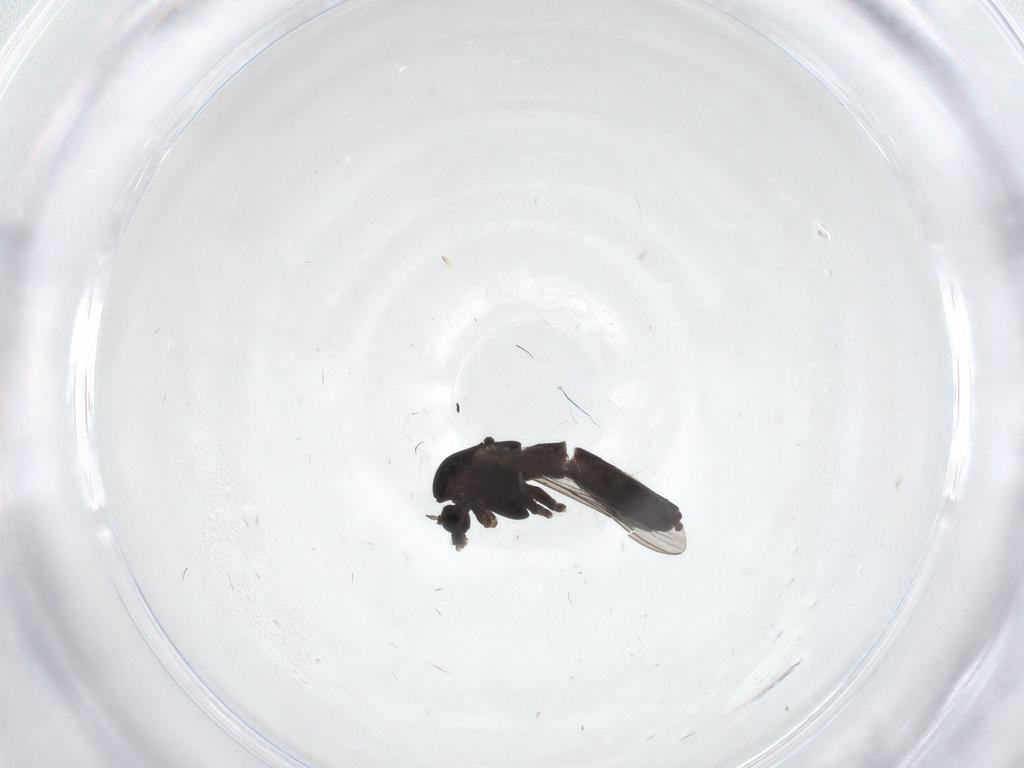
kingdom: Animalia
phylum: Arthropoda
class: Insecta
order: Diptera
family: Chironomidae
